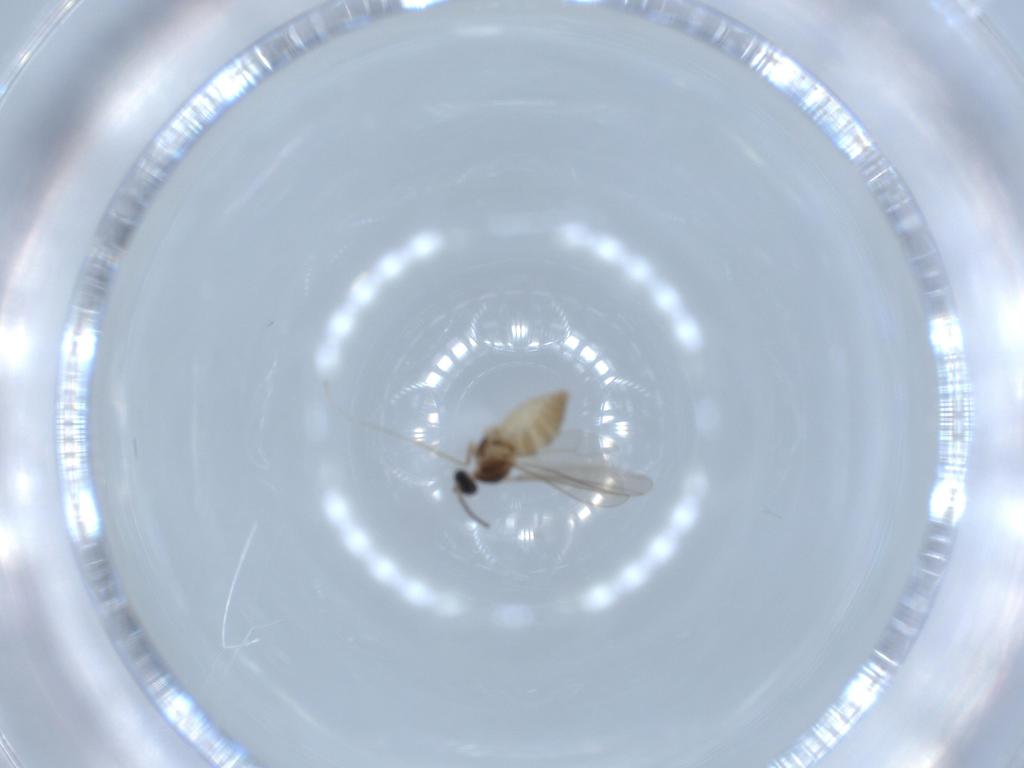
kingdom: Animalia
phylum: Arthropoda
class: Insecta
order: Diptera
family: Cecidomyiidae
